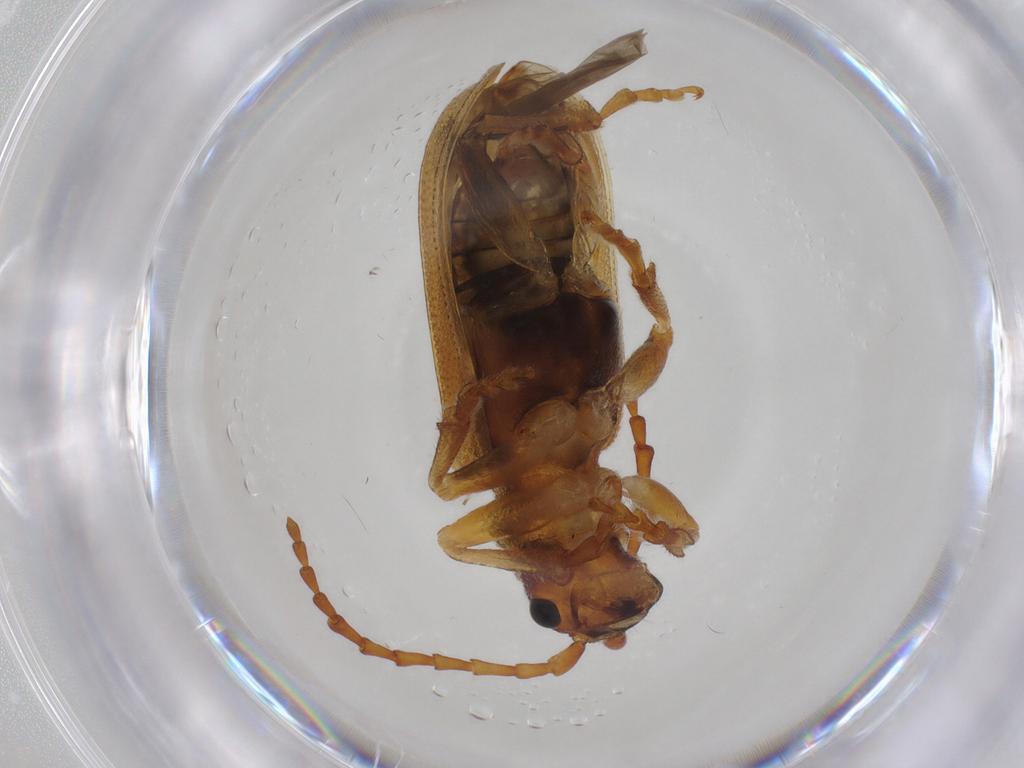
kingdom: Animalia
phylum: Arthropoda
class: Insecta
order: Coleoptera
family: Chrysomelidae
